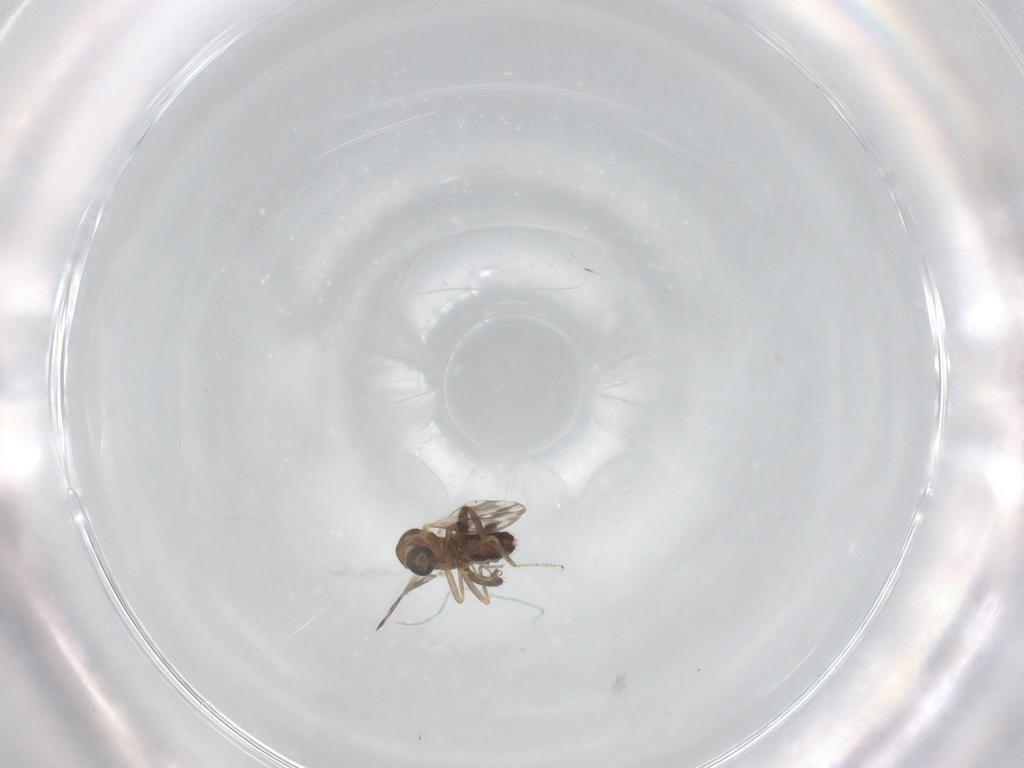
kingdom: Animalia
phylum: Arthropoda
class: Insecta
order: Diptera
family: Ceratopogonidae
